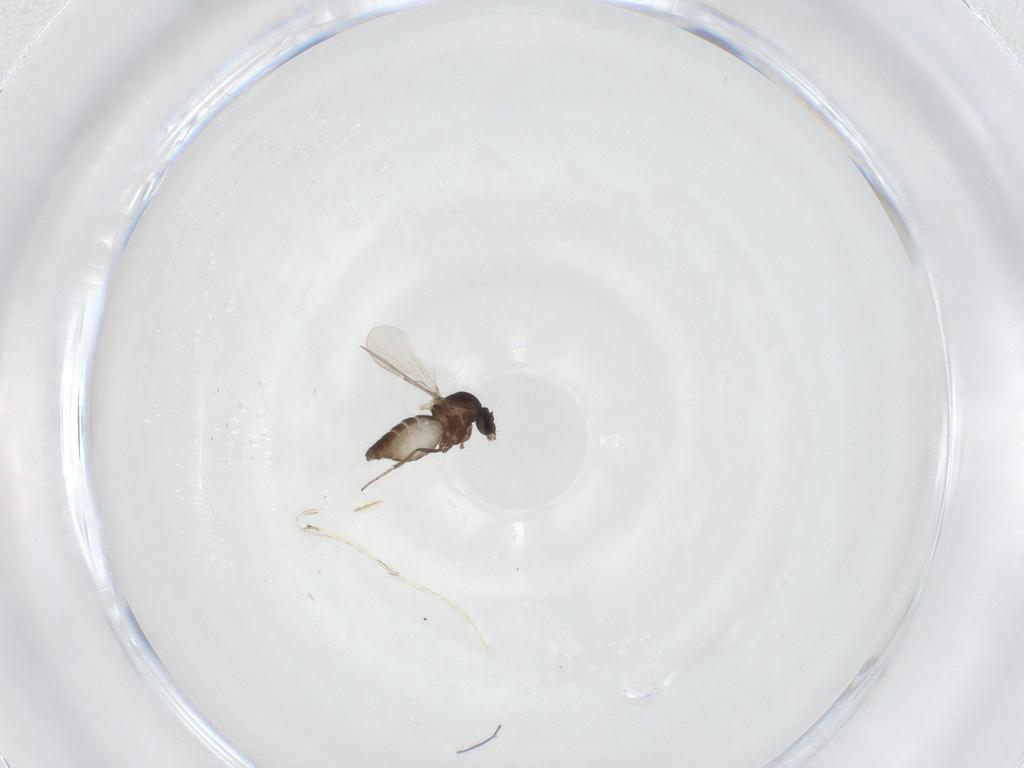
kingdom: Animalia
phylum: Arthropoda
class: Insecta
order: Diptera
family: Ceratopogonidae
